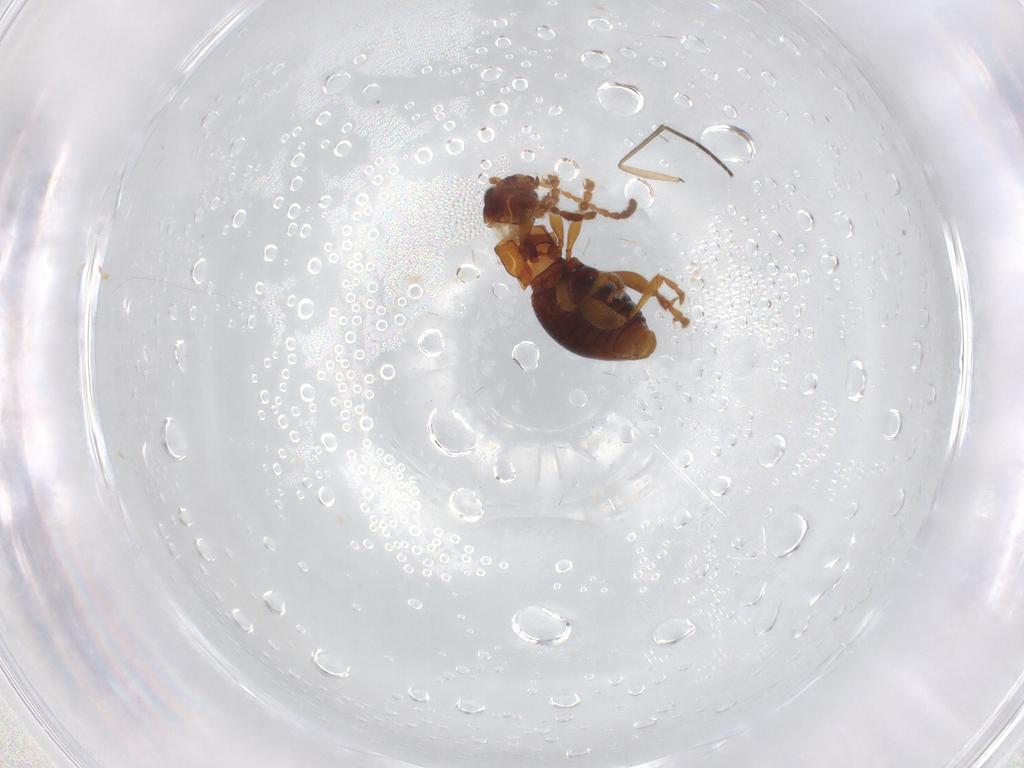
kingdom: Animalia
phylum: Arthropoda
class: Insecta
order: Coleoptera
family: Chrysomelidae
